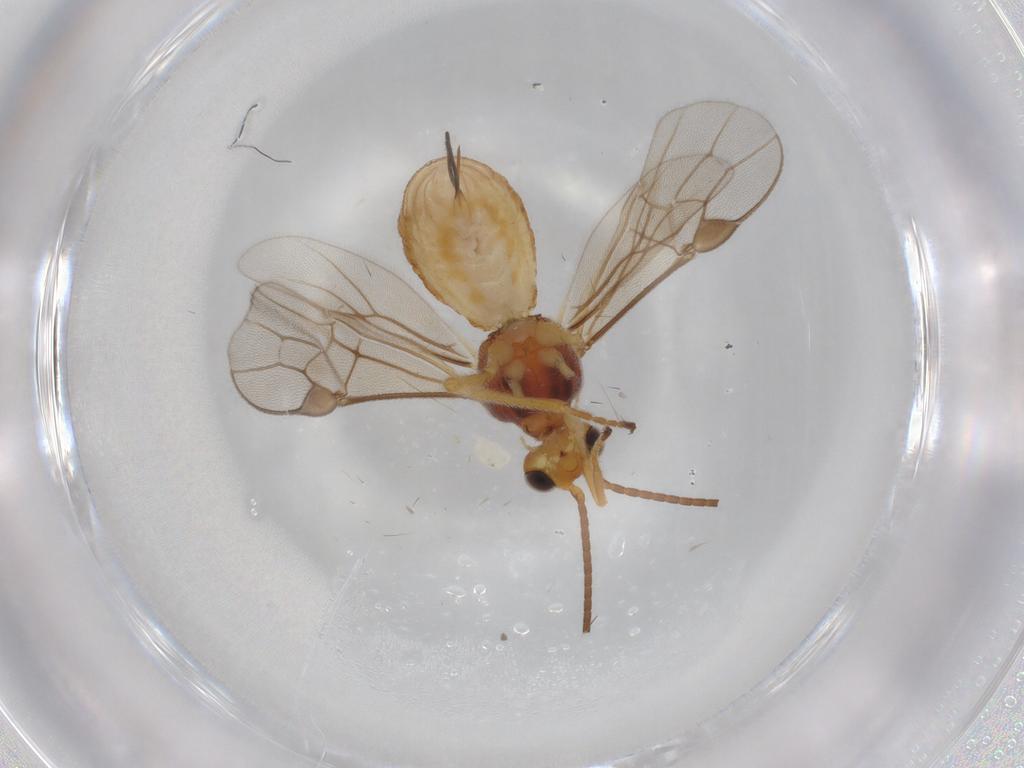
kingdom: Animalia
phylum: Arthropoda
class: Insecta
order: Hymenoptera
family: Braconidae
